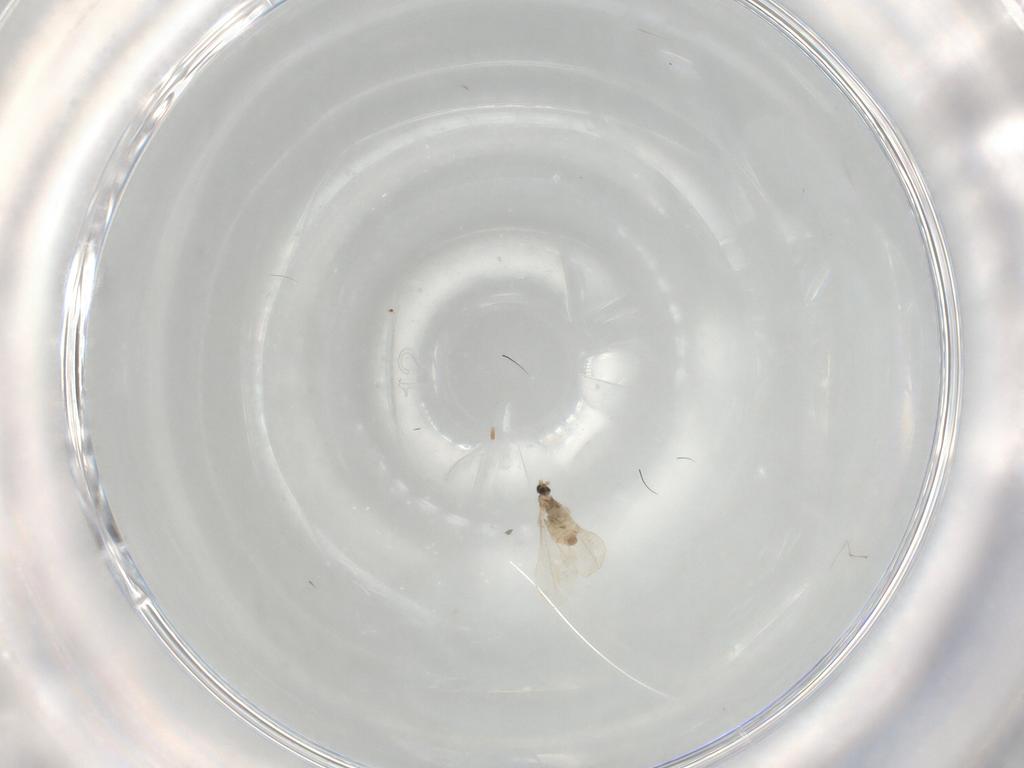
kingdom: Animalia
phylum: Arthropoda
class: Insecta
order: Diptera
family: Cecidomyiidae
